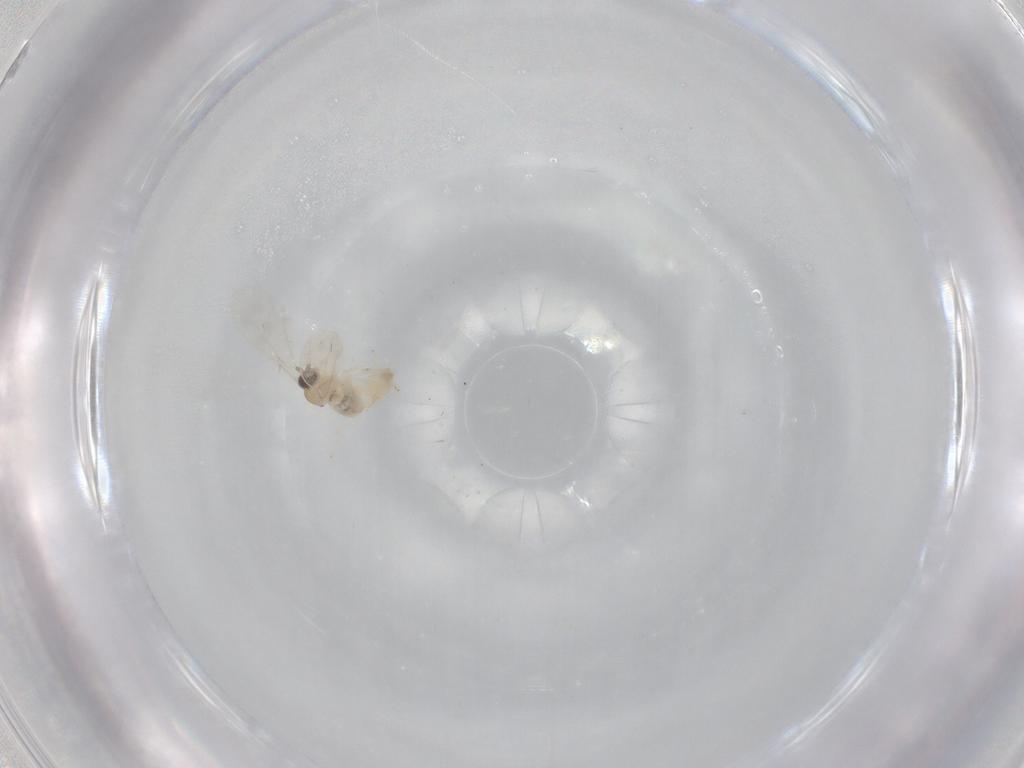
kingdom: Animalia
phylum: Arthropoda
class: Insecta
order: Diptera
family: Cecidomyiidae
